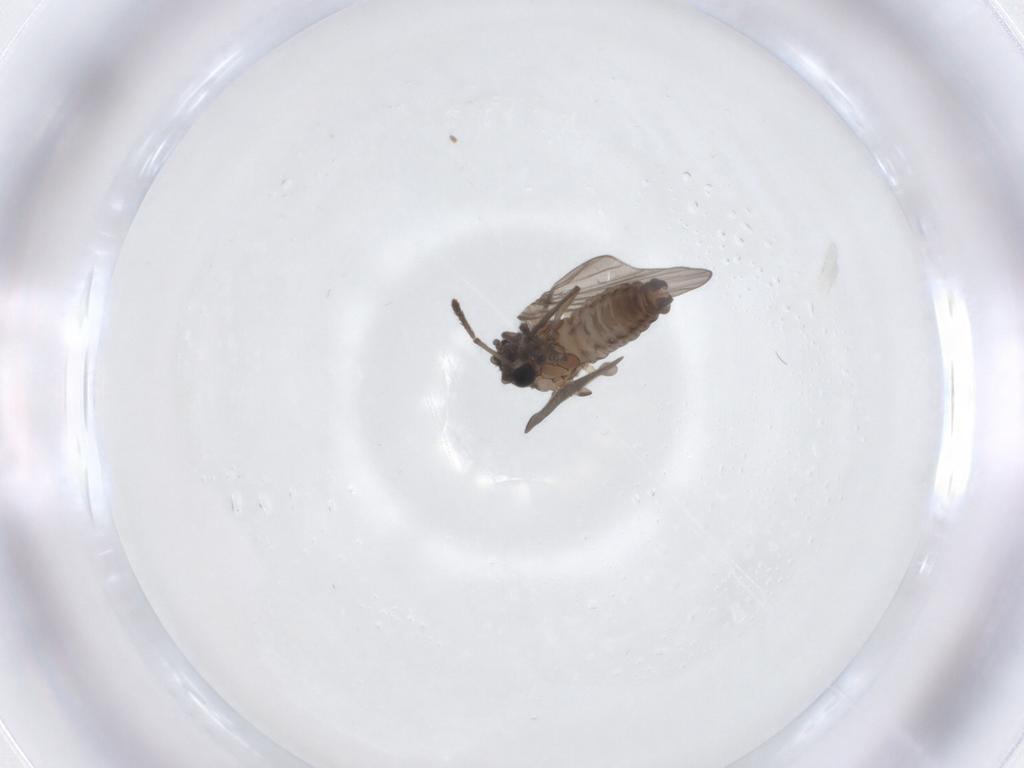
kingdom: Animalia
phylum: Arthropoda
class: Insecta
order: Diptera
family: Psychodidae
